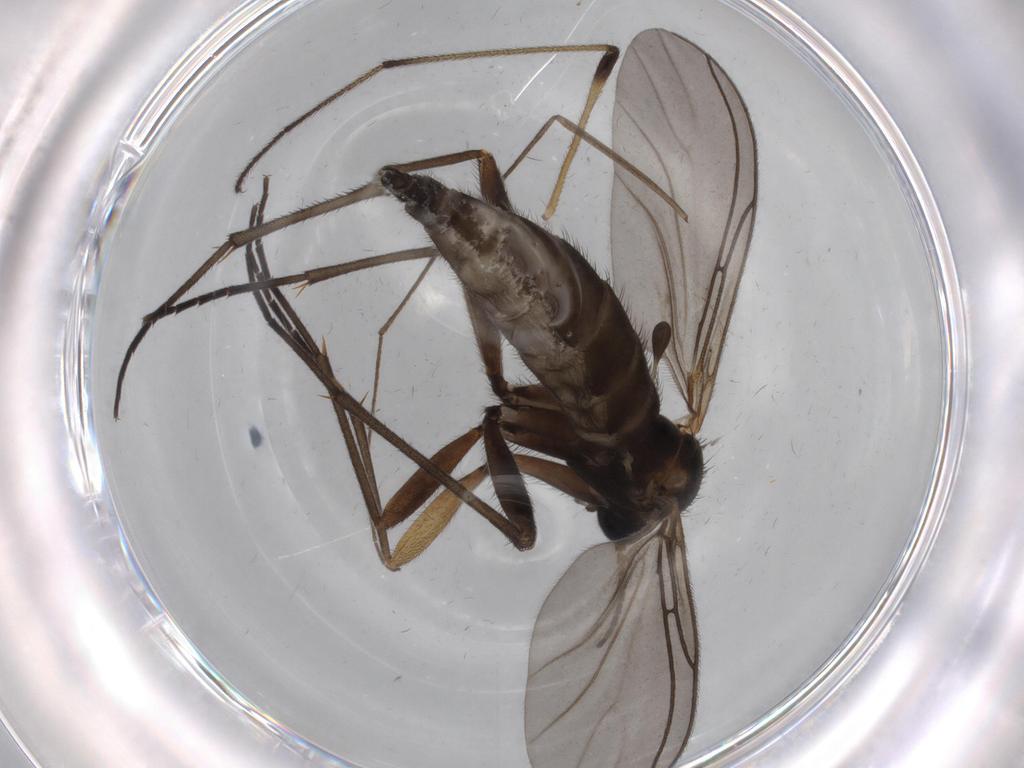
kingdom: Animalia
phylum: Arthropoda
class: Insecta
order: Diptera
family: Limoniidae
